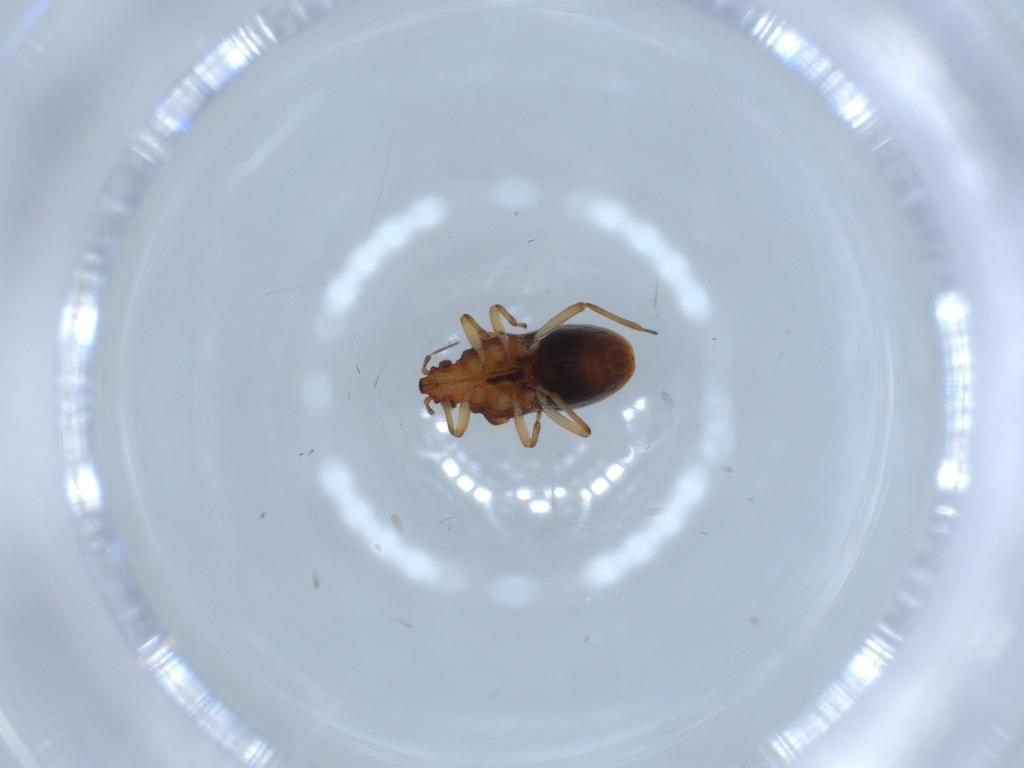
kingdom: Animalia
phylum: Arthropoda
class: Insecta
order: Hemiptera
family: Hebridae
